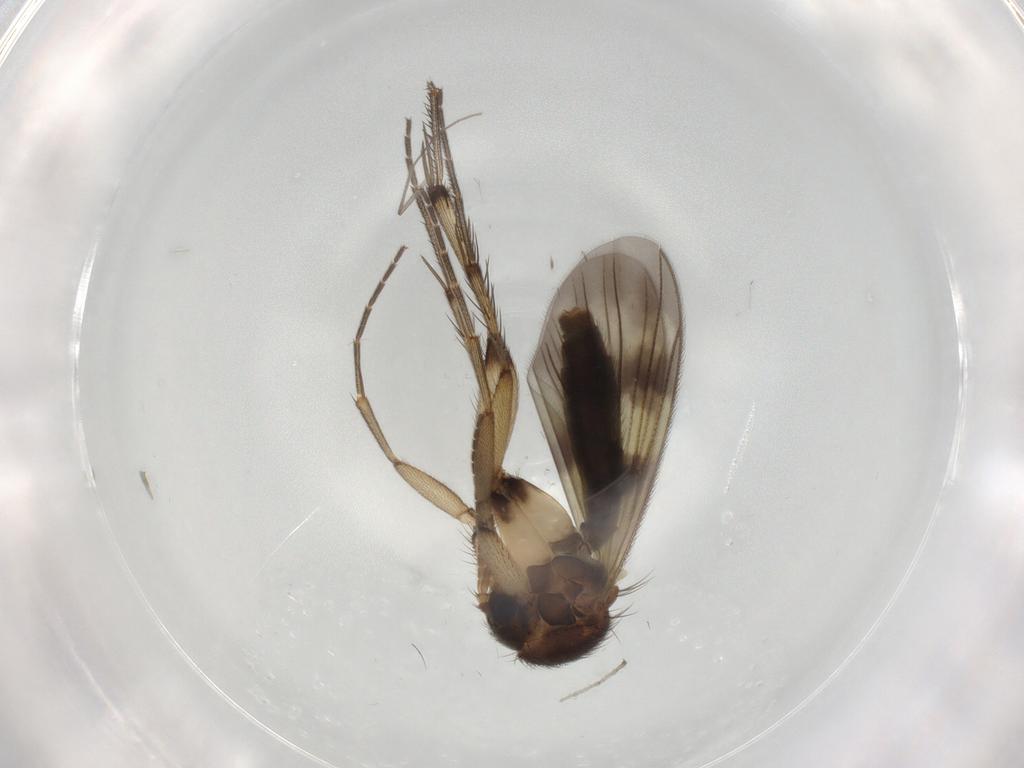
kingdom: Animalia
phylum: Arthropoda
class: Insecta
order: Diptera
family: Mycetophilidae
